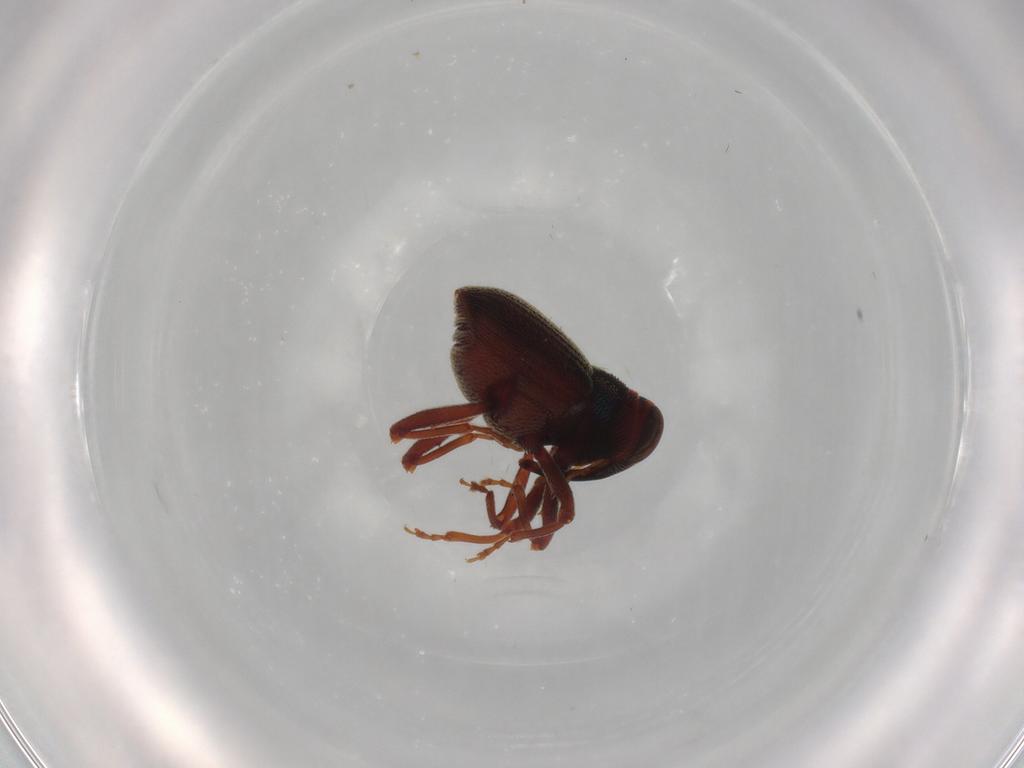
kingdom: Animalia
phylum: Arthropoda
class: Insecta
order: Coleoptera
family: Curculionidae
